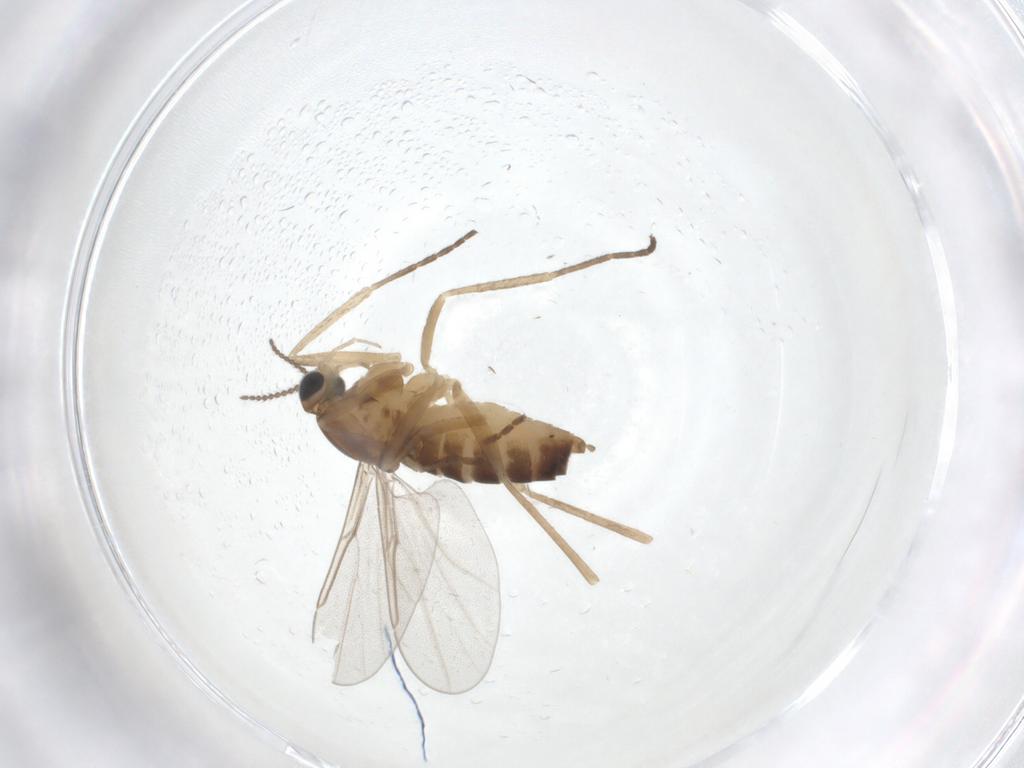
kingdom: Animalia
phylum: Arthropoda
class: Insecta
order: Diptera
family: Cecidomyiidae
